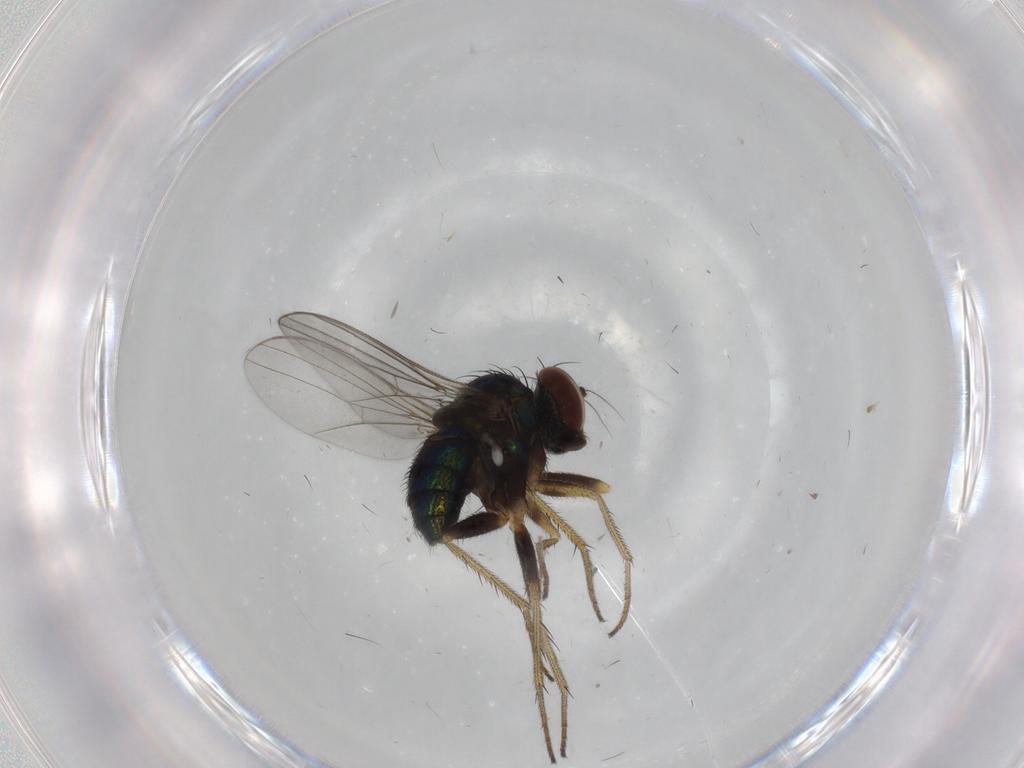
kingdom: Animalia
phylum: Arthropoda
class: Insecta
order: Diptera
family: Dolichopodidae
